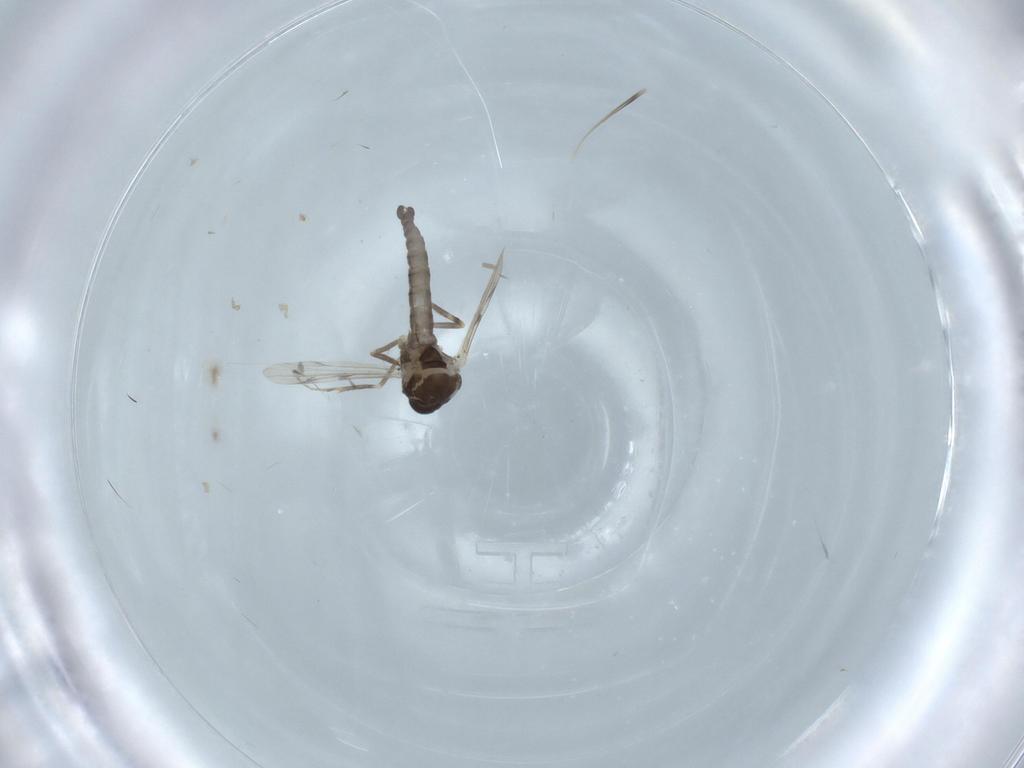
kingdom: Animalia
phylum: Arthropoda
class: Insecta
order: Diptera
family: Ceratopogonidae
